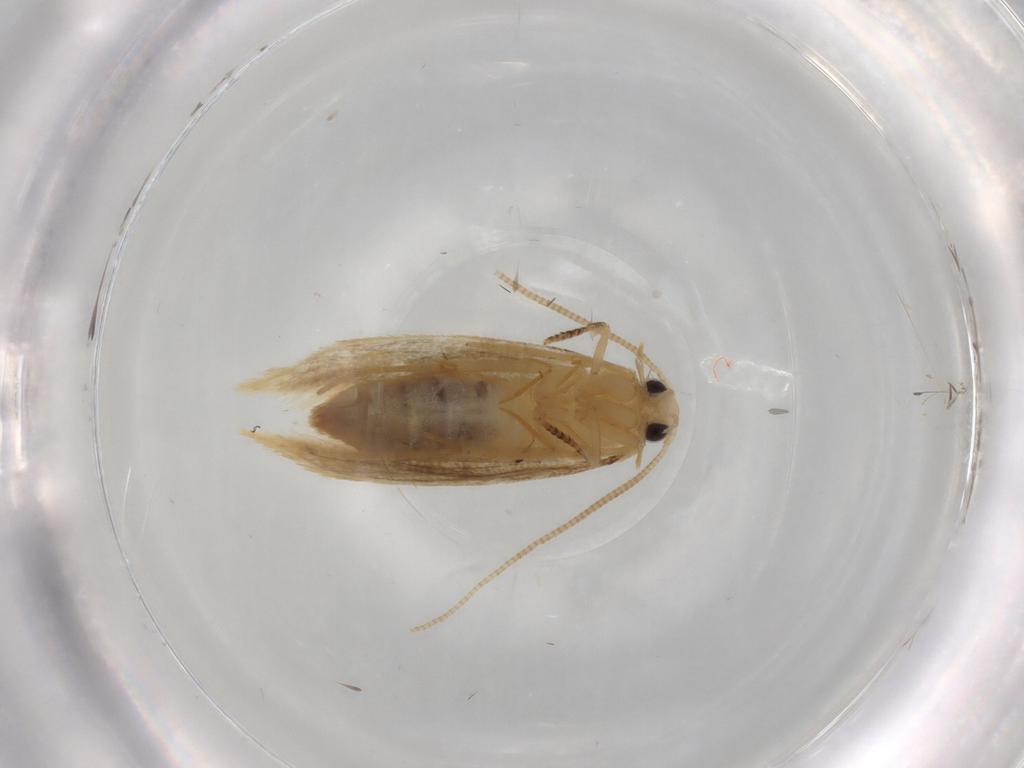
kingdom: Animalia
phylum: Arthropoda
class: Insecta
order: Lepidoptera
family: Tineidae
